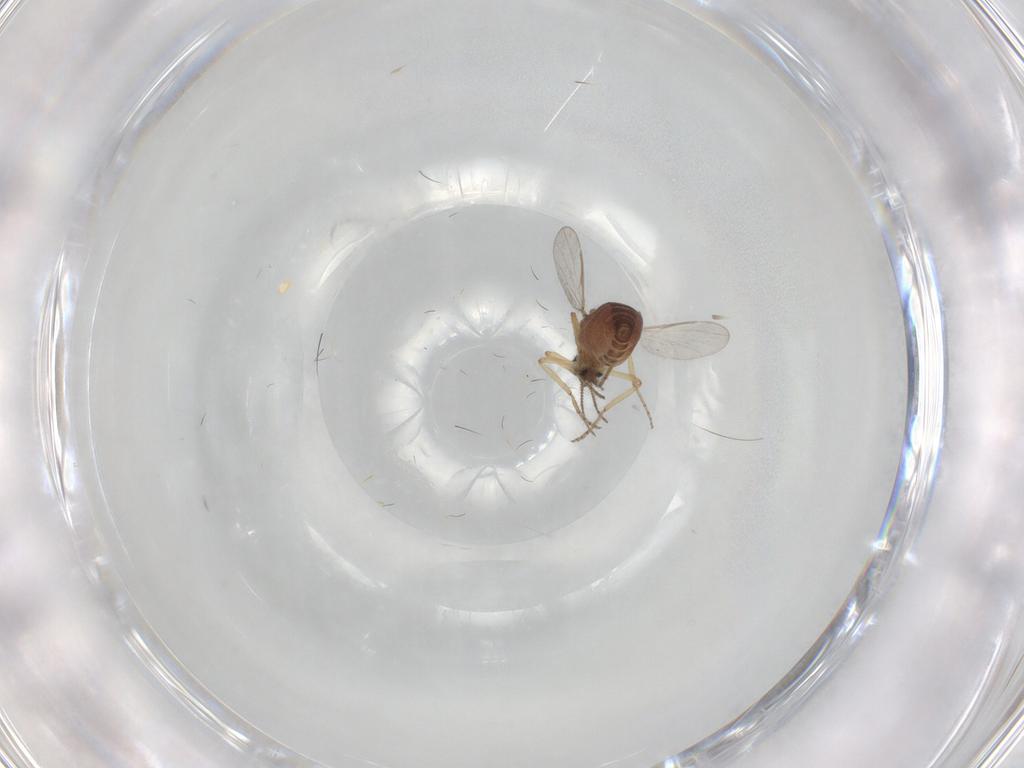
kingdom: Animalia
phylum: Arthropoda
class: Insecta
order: Diptera
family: Ceratopogonidae
